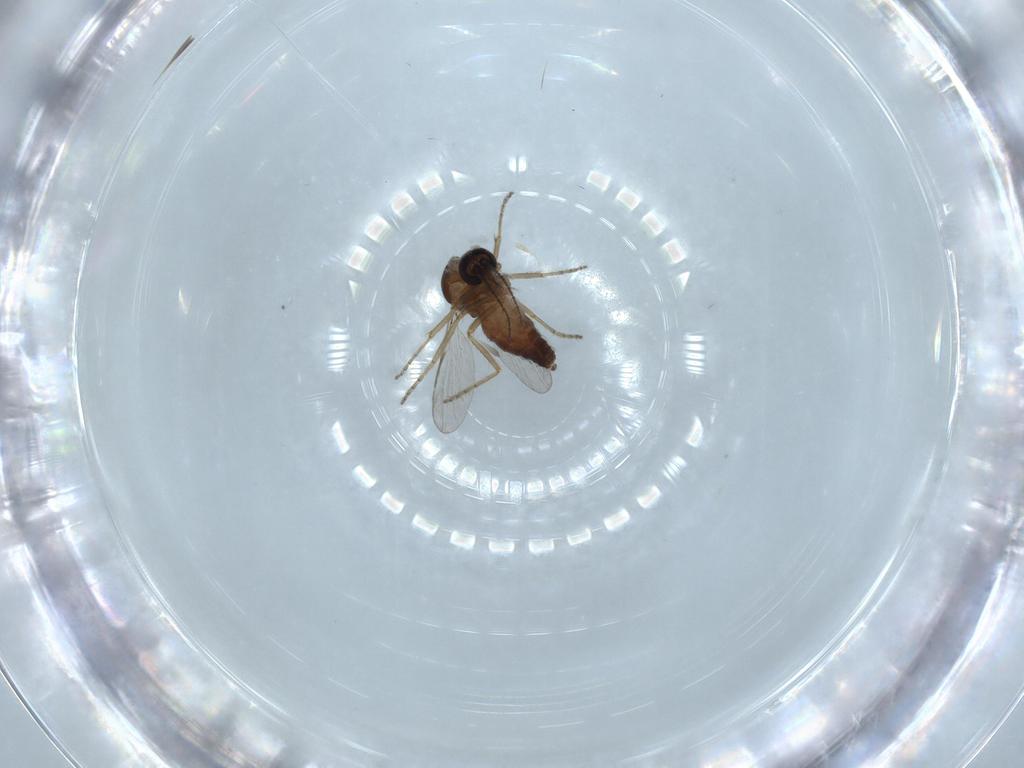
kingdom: Animalia
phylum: Arthropoda
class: Insecta
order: Diptera
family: Ceratopogonidae
